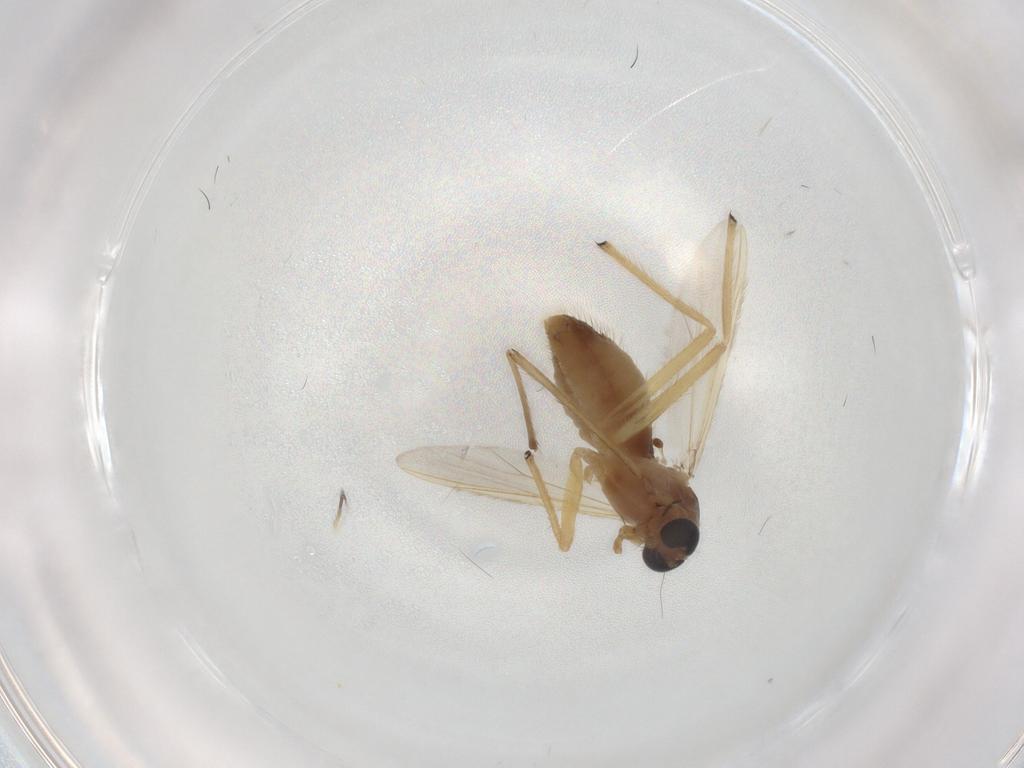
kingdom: Animalia
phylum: Arthropoda
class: Insecta
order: Diptera
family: Chironomidae
